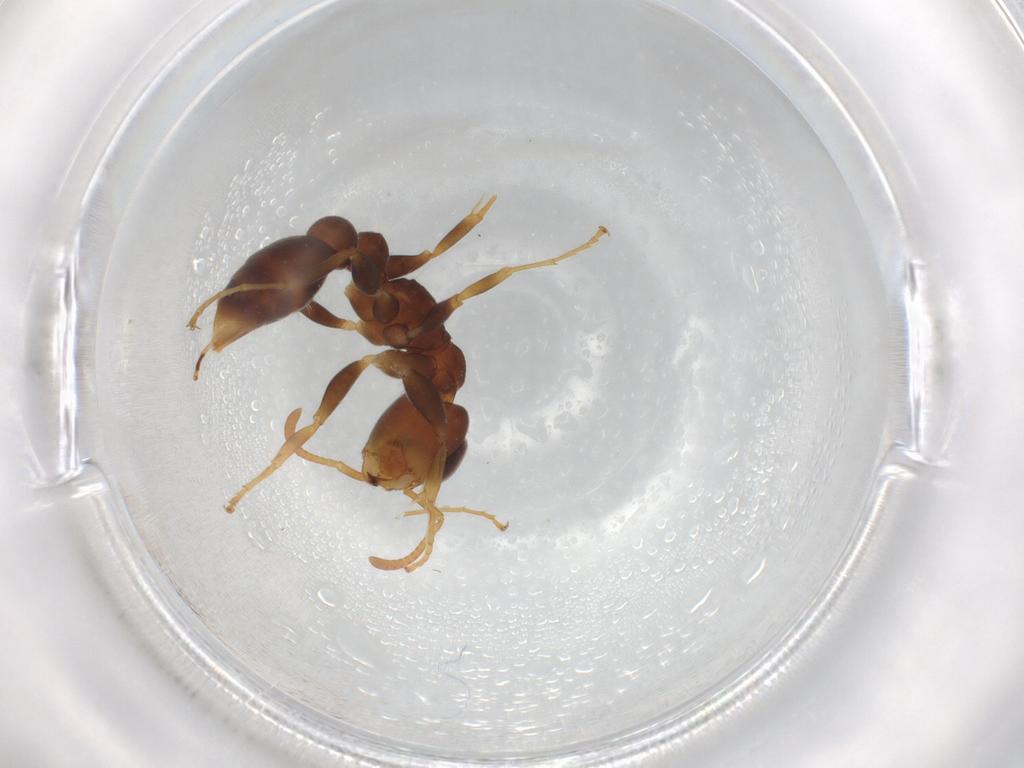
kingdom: Animalia
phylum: Arthropoda
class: Insecta
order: Hymenoptera
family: Formicidae
